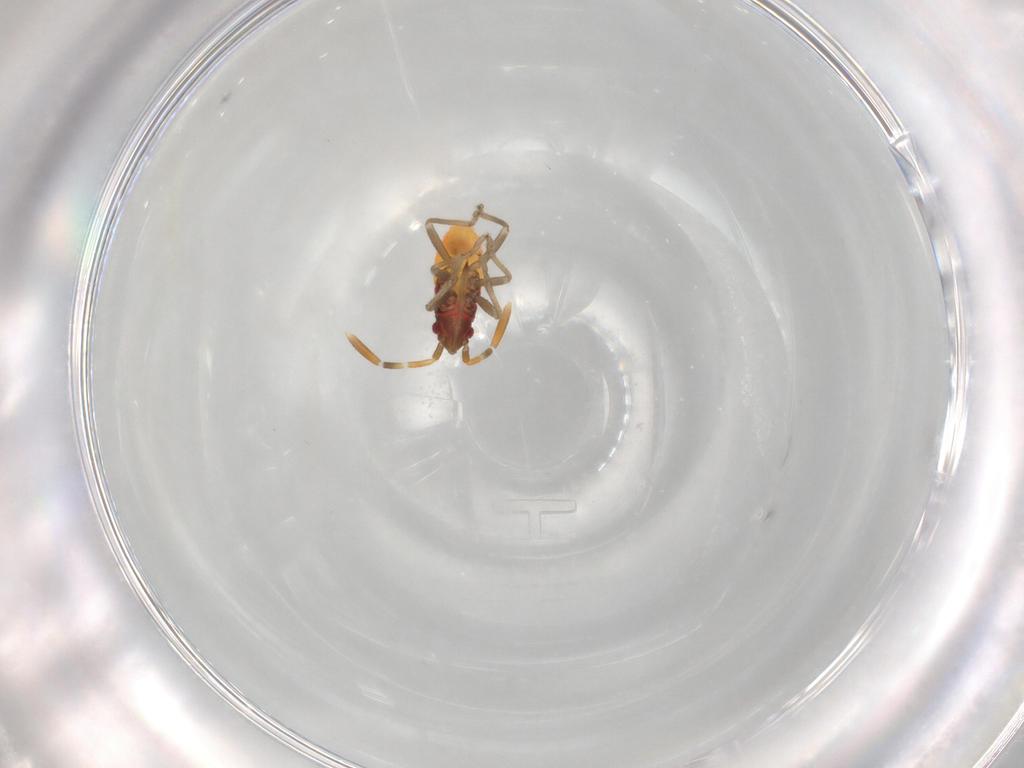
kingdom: Animalia
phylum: Arthropoda
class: Insecta
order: Hemiptera
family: Rhyparochromidae
